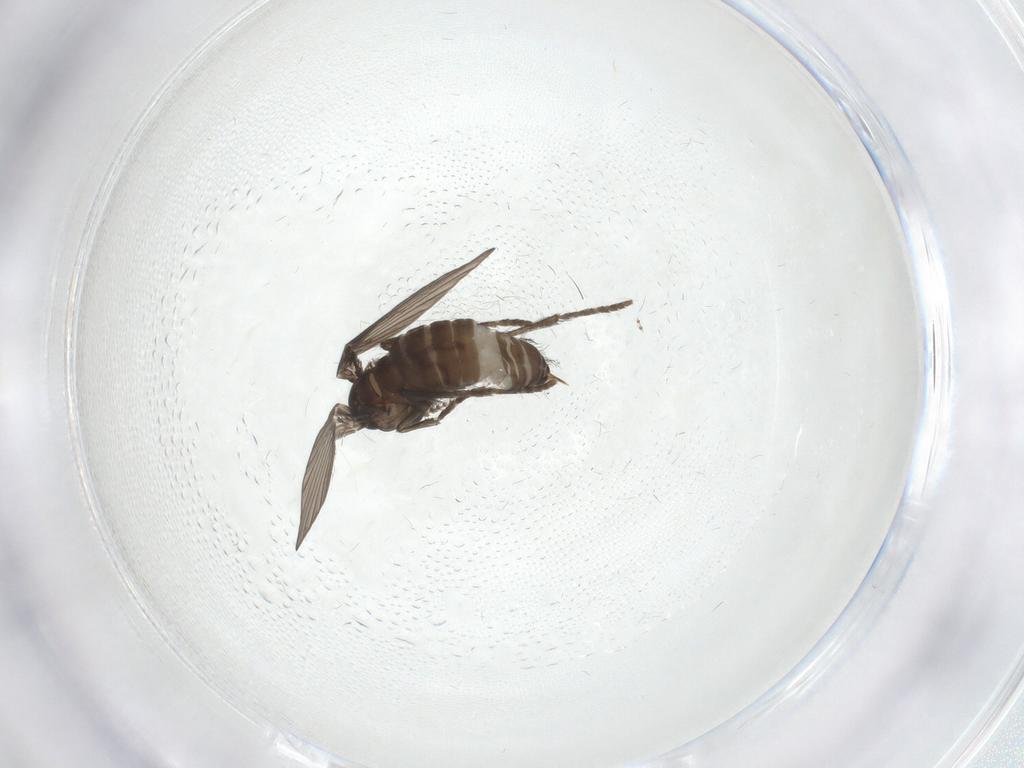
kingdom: Animalia
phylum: Arthropoda
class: Insecta
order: Diptera
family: Psychodidae
